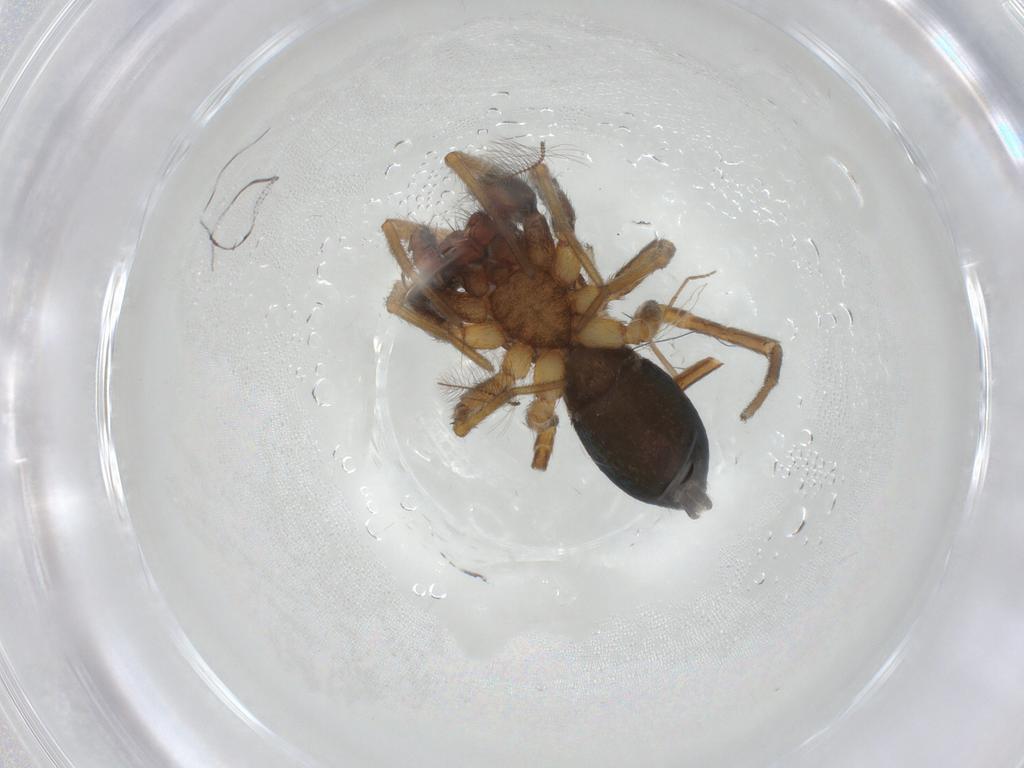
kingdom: Animalia
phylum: Arthropoda
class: Arachnida
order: Araneae
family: Gnaphosidae
